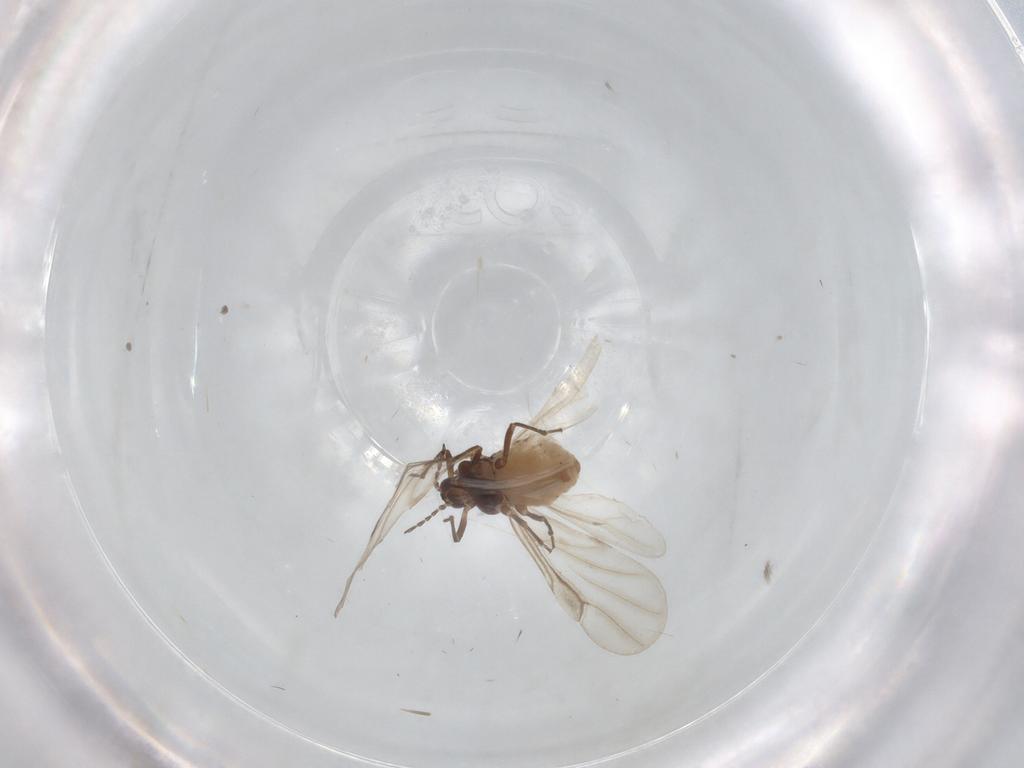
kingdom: Animalia
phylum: Arthropoda
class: Insecta
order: Hemiptera
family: Aphididae
